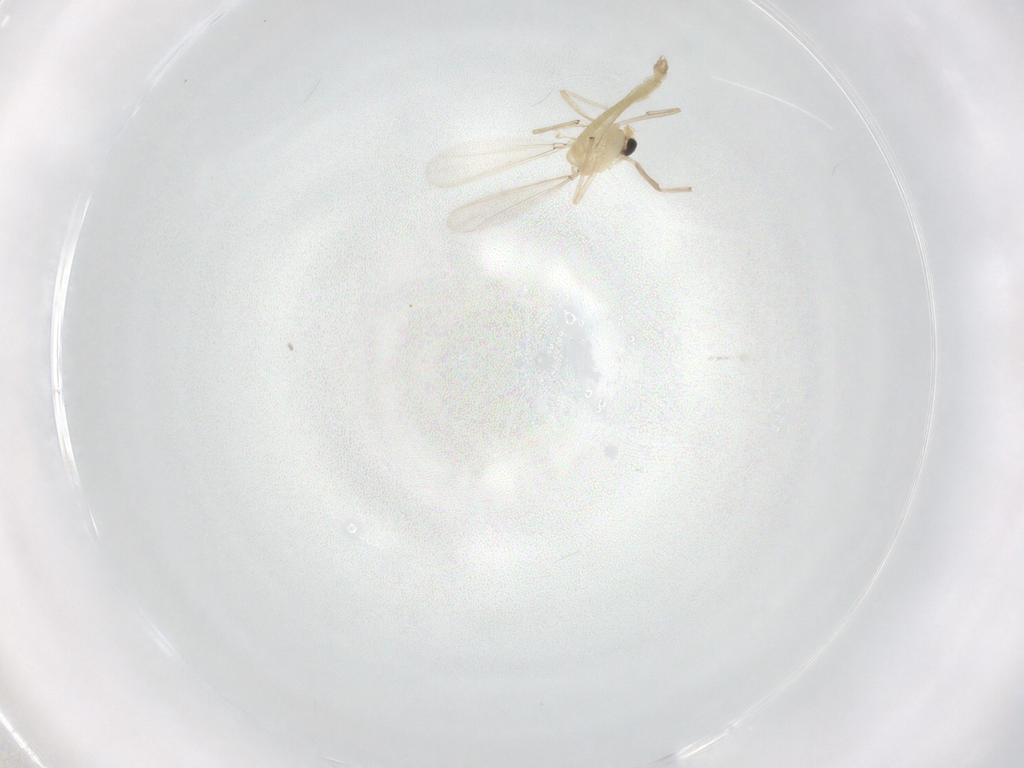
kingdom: Animalia
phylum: Arthropoda
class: Insecta
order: Diptera
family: Chironomidae
